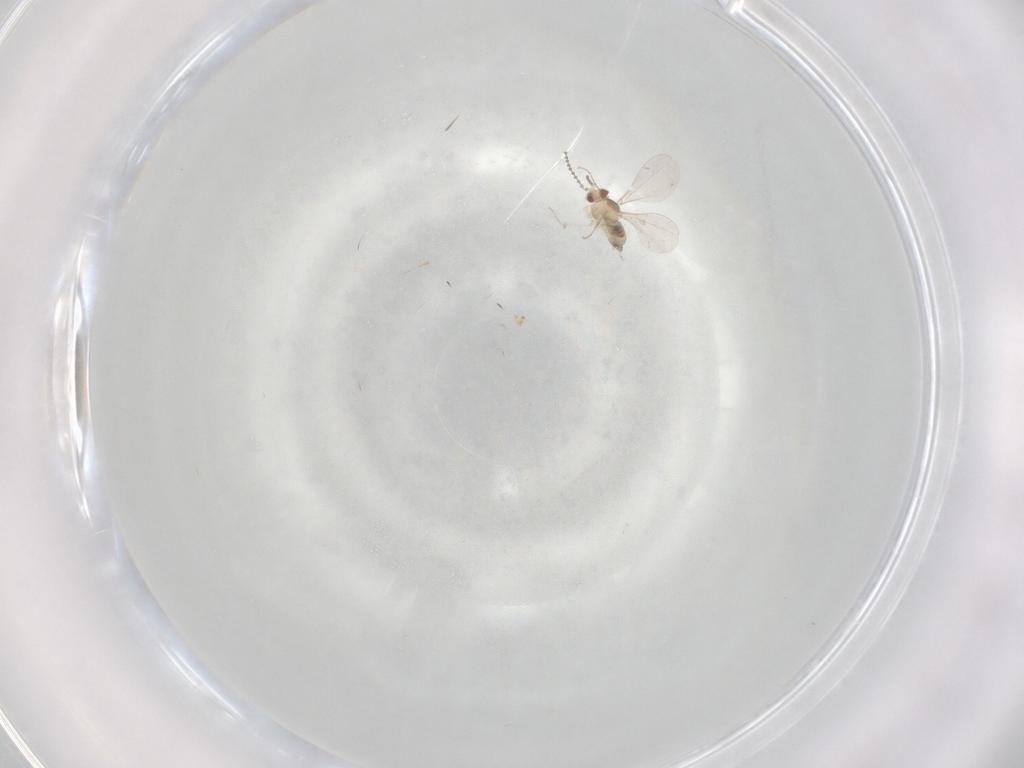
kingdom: Animalia
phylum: Arthropoda
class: Insecta
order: Diptera
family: Cecidomyiidae
